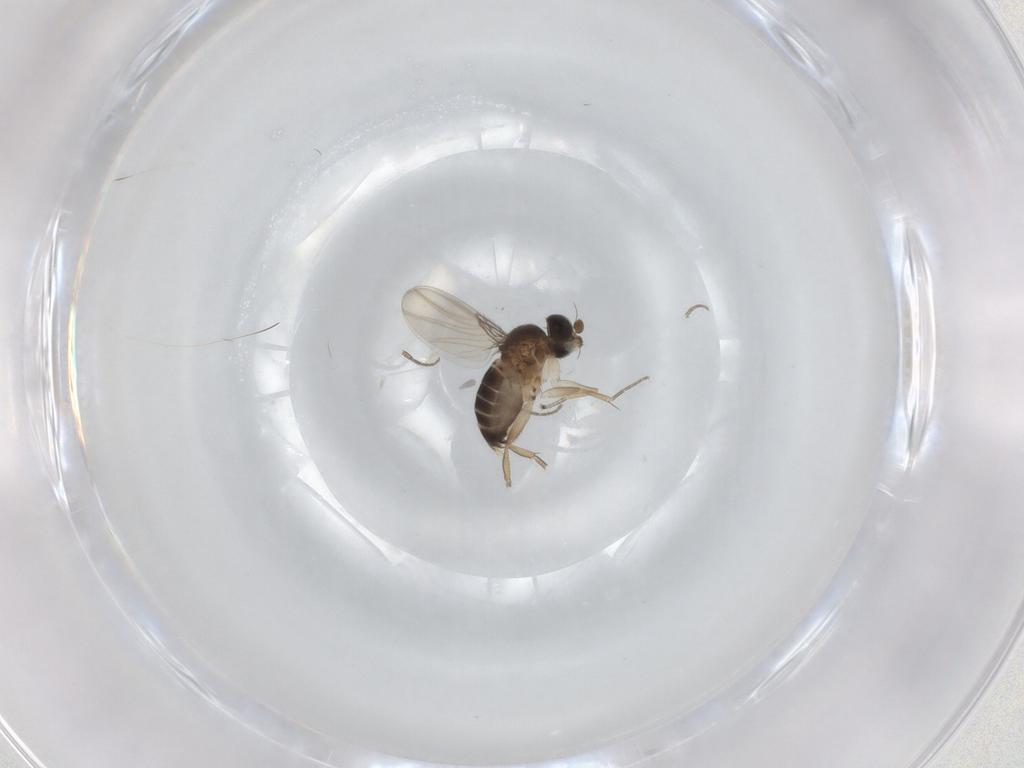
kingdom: Animalia
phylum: Arthropoda
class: Insecta
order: Diptera
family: Phoridae
